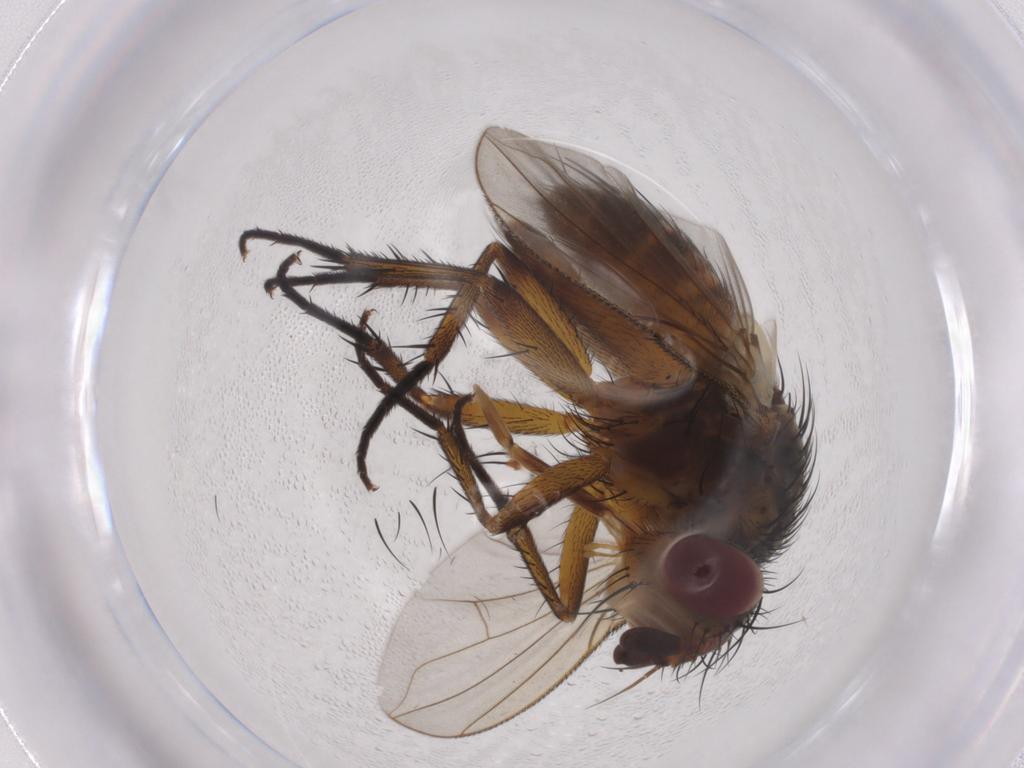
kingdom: Animalia
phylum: Arthropoda
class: Insecta
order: Diptera
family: Tachinidae
